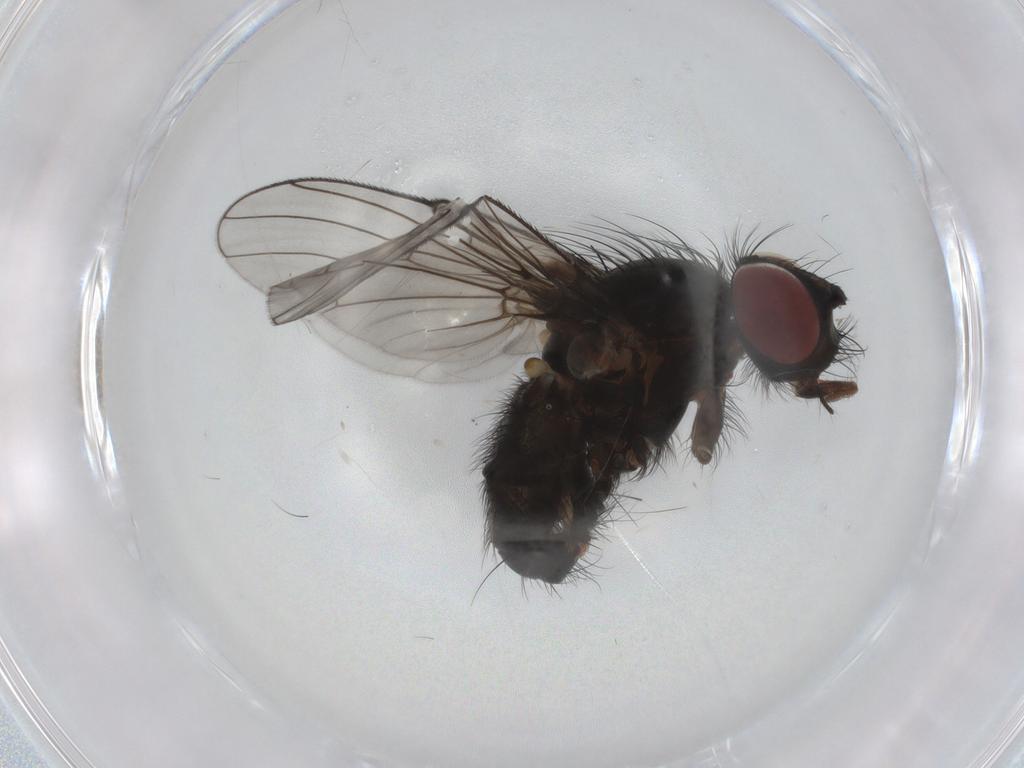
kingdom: Animalia
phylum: Arthropoda
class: Insecta
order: Diptera
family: Anthomyiidae
